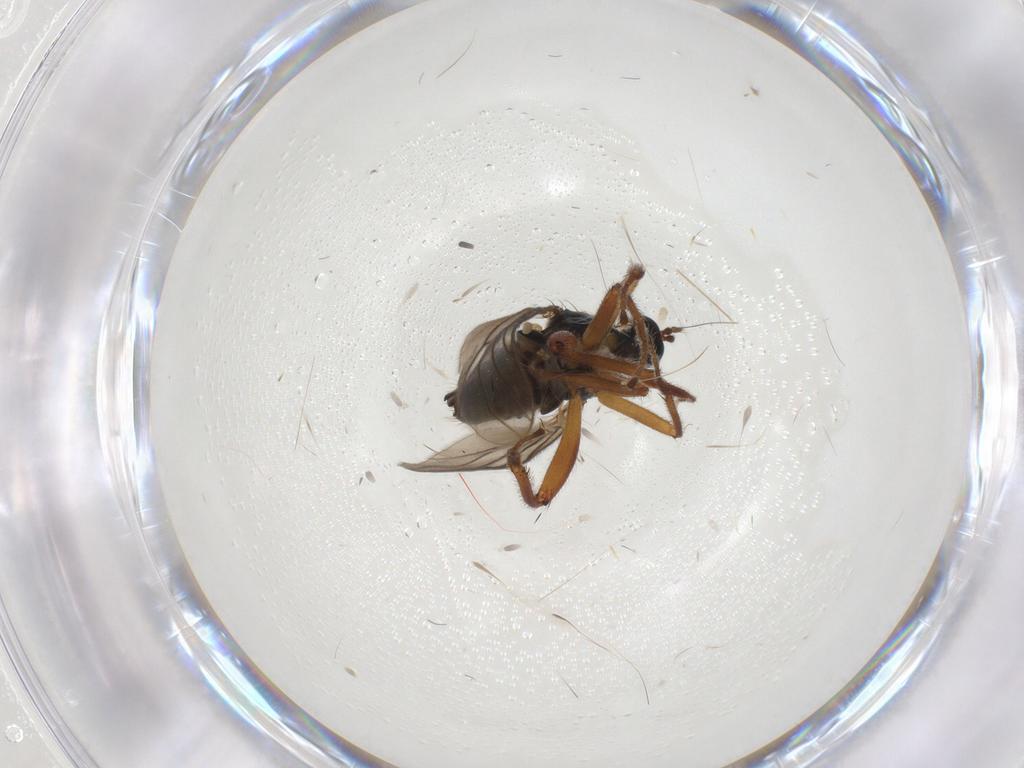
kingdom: Animalia
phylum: Arthropoda
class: Insecta
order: Diptera
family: Hybotidae
